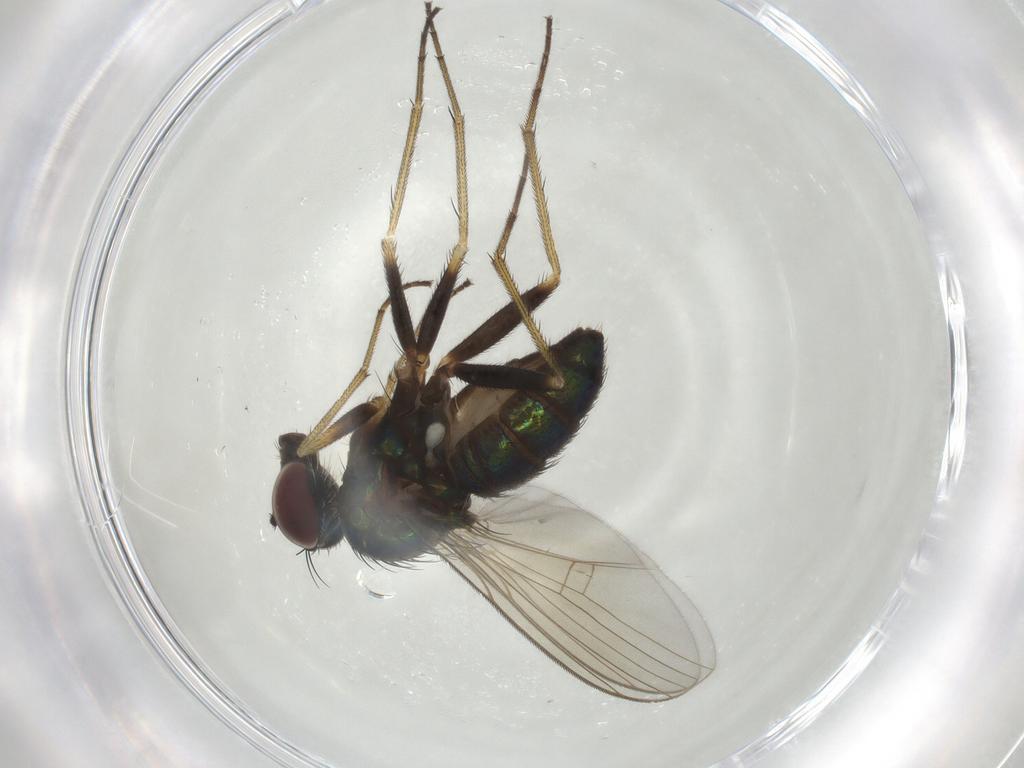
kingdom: Animalia
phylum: Arthropoda
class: Insecta
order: Diptera
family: Dolichopodidae
